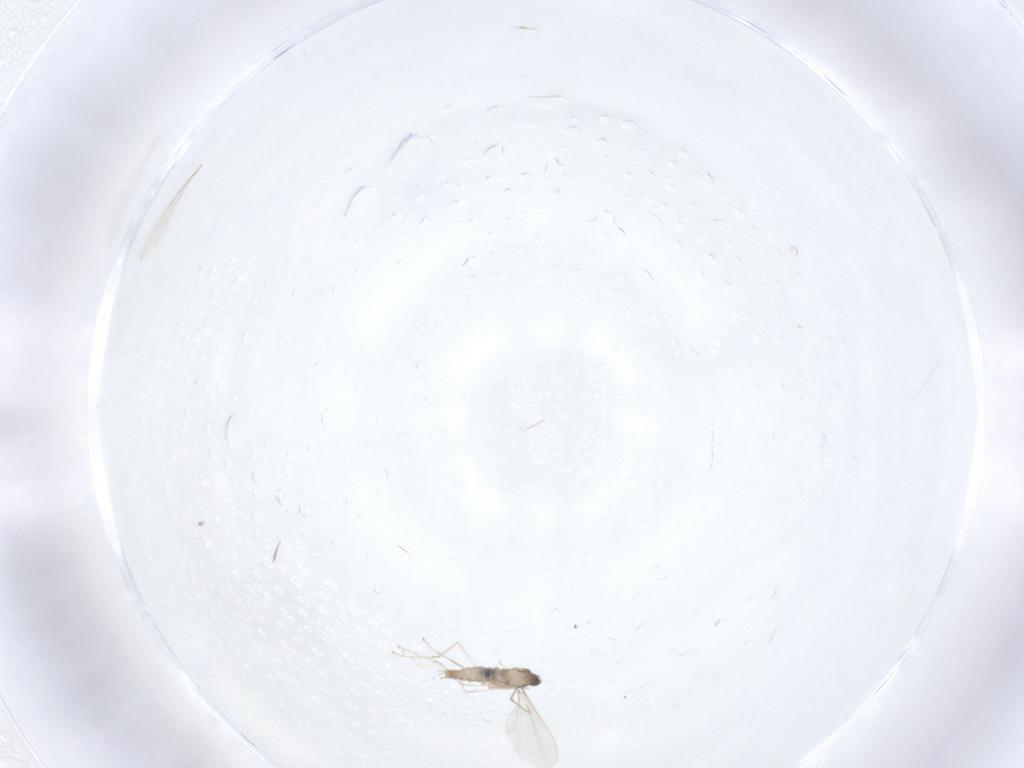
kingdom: Animalia
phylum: Arthropoda
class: Insecta
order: Diptera
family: Cecidomyiidae
